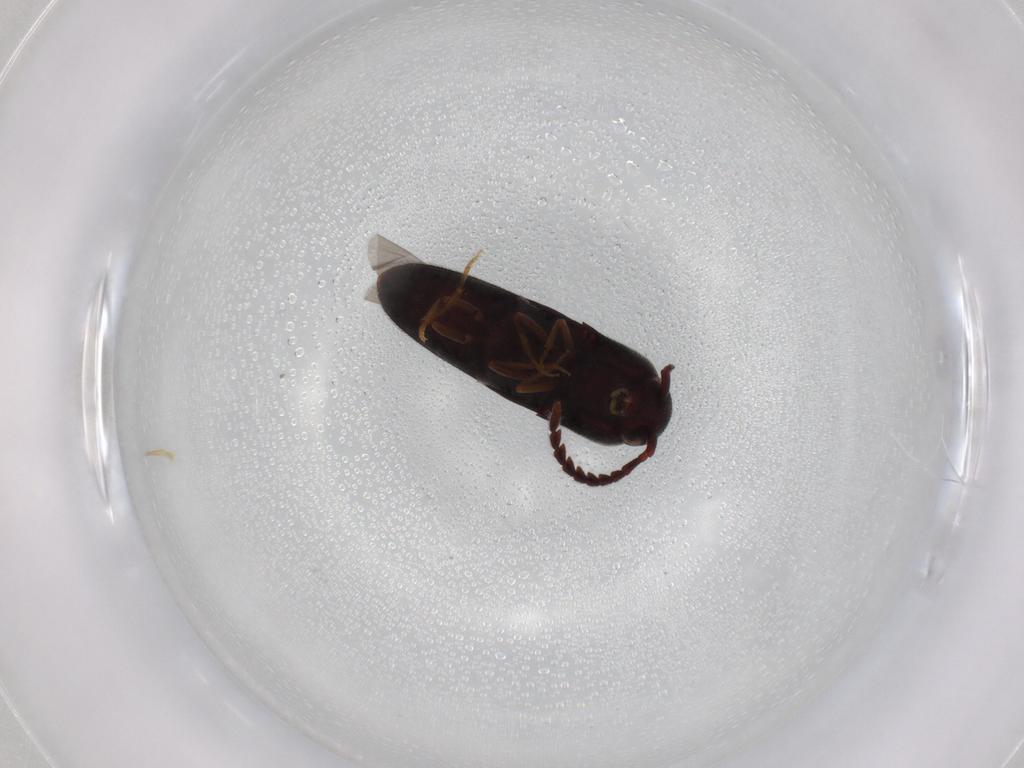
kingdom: Animalia
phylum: Arthropoda
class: Insecta
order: Coleoptera
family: Eucnemidae
